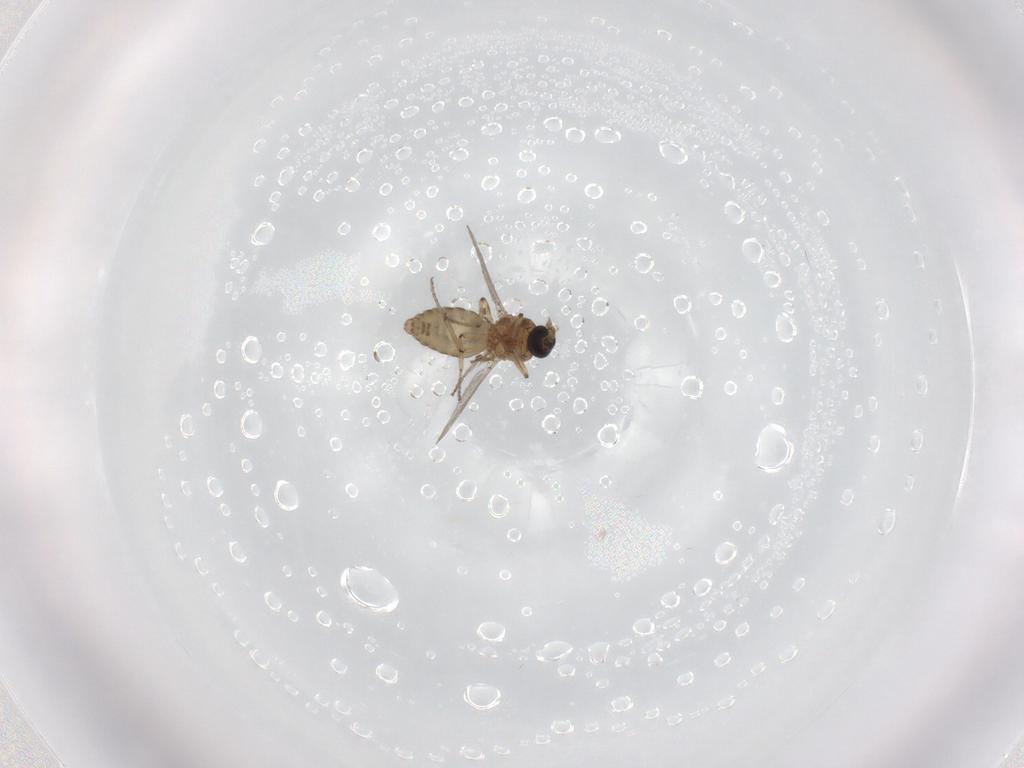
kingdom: Animalia
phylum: Arthropoda
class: Insecta
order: Diptera
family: Ceratopogonidae
